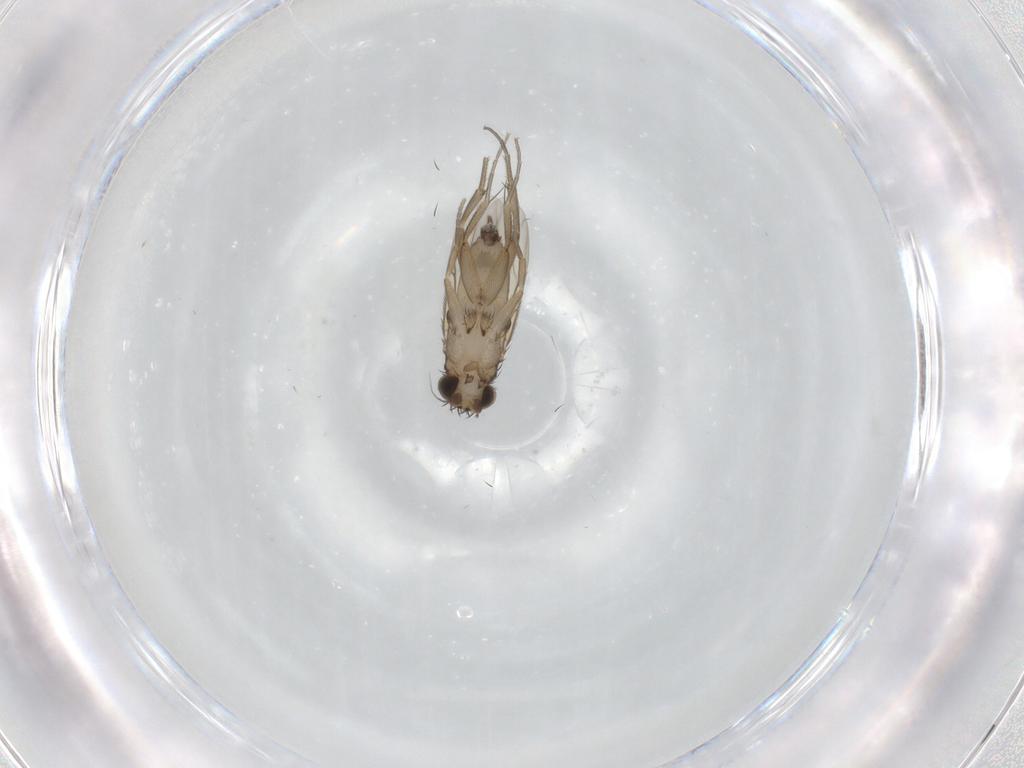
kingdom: Animalia
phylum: Arthropoda
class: Insecta
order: Diptera
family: Phoridae
